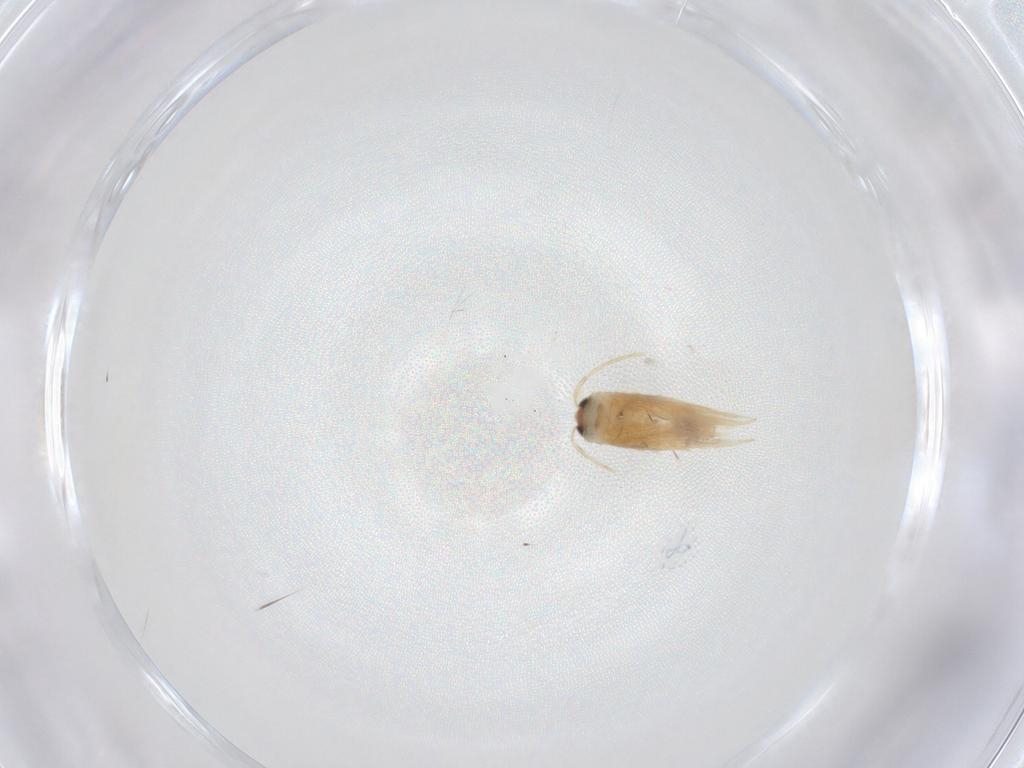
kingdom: Animalia
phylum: Arthropoda
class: Insecta
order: Lepidoptera
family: Nepticulidae
